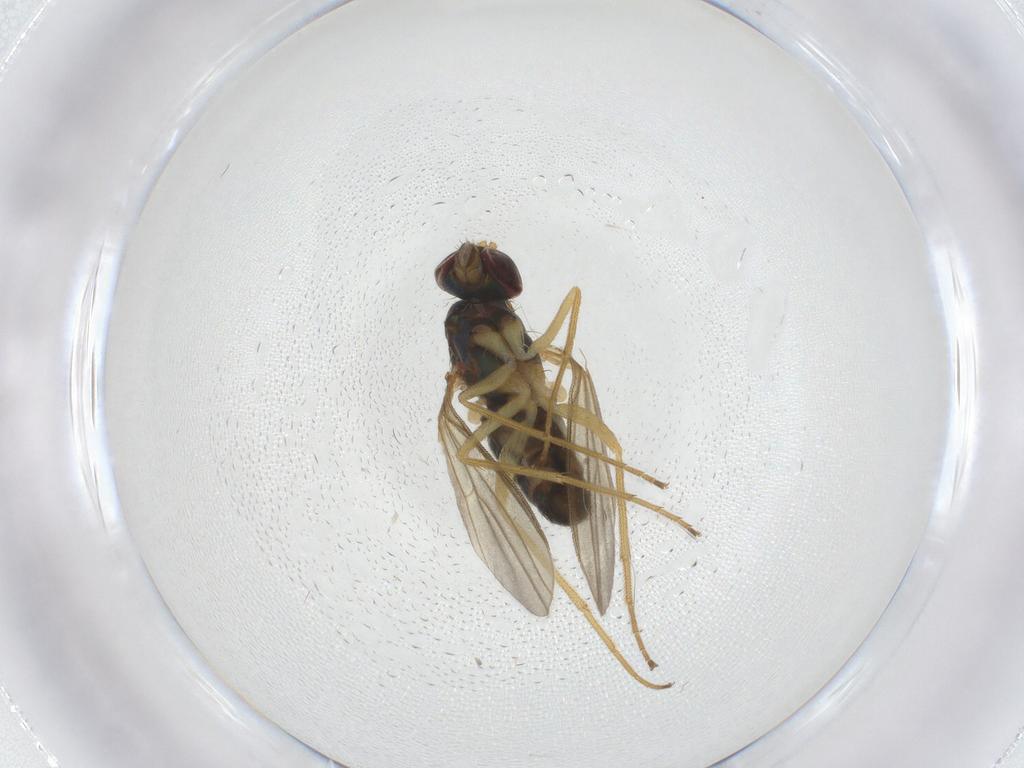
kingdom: Animalia
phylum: Arthropoda
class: Insecta
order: Diptera
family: Dolichopodidae
